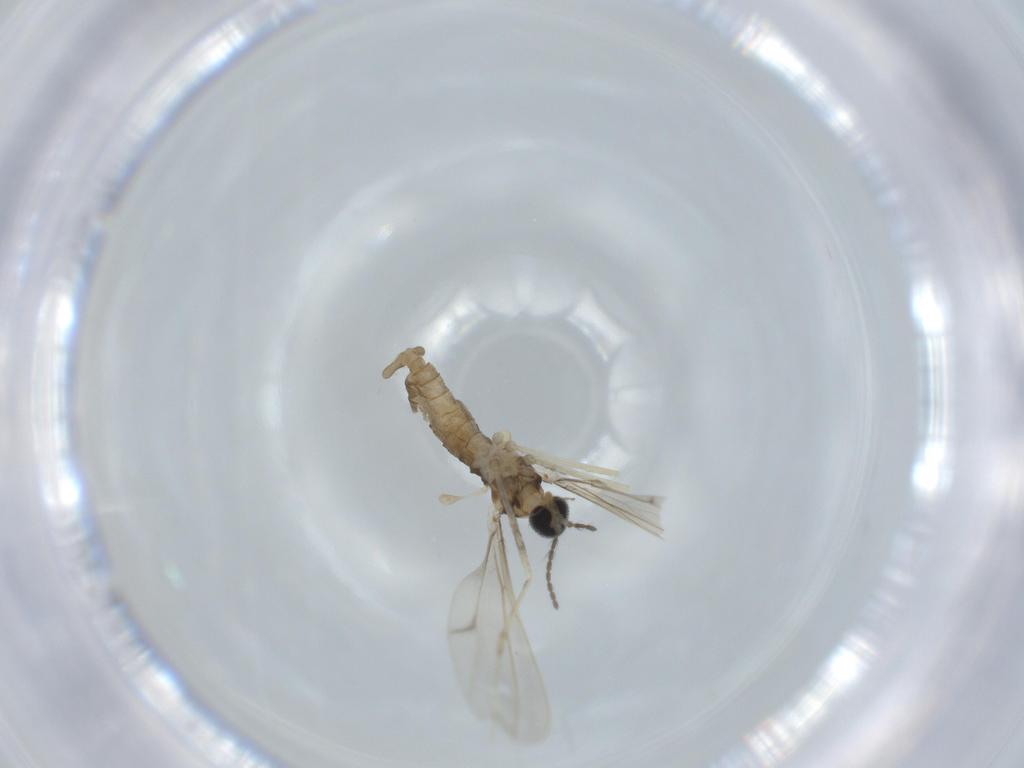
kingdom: Animalia
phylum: Arthropoda
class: Insecta
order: Diptera
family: Cecidomyiidae
